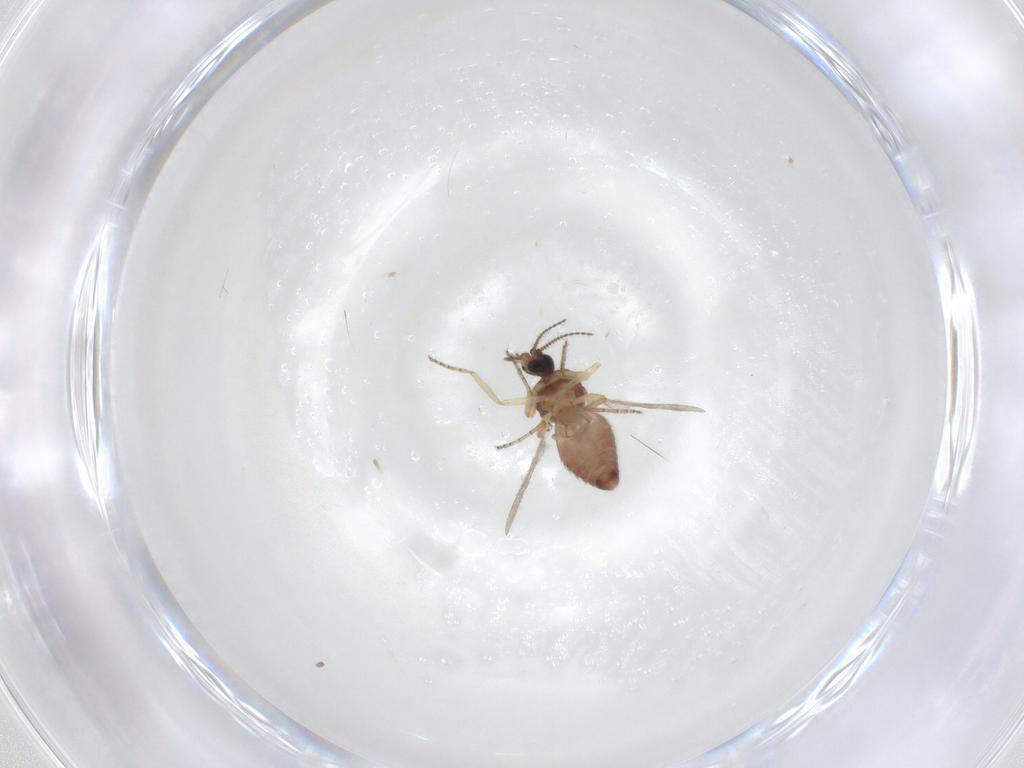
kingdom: Animalia
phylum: Arthropoda
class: Insecta
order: Diptera
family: Ceratopogonidae
